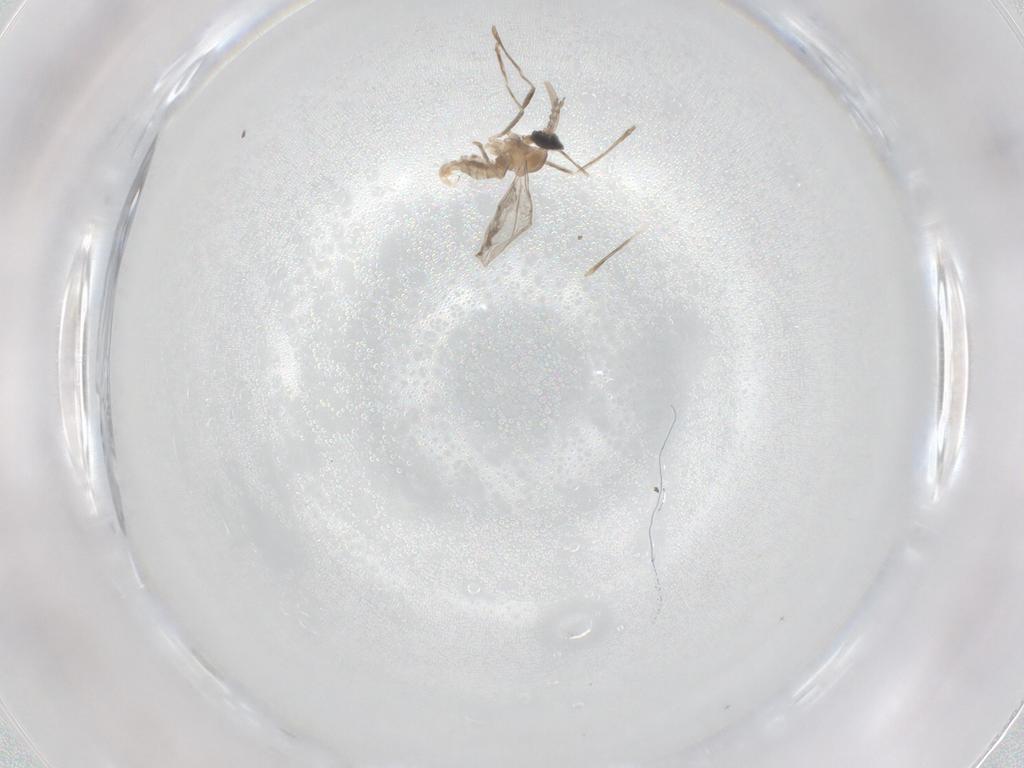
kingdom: Animalia
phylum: Arthropoda
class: Insecta
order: Diptera
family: Cecidomyiidae
